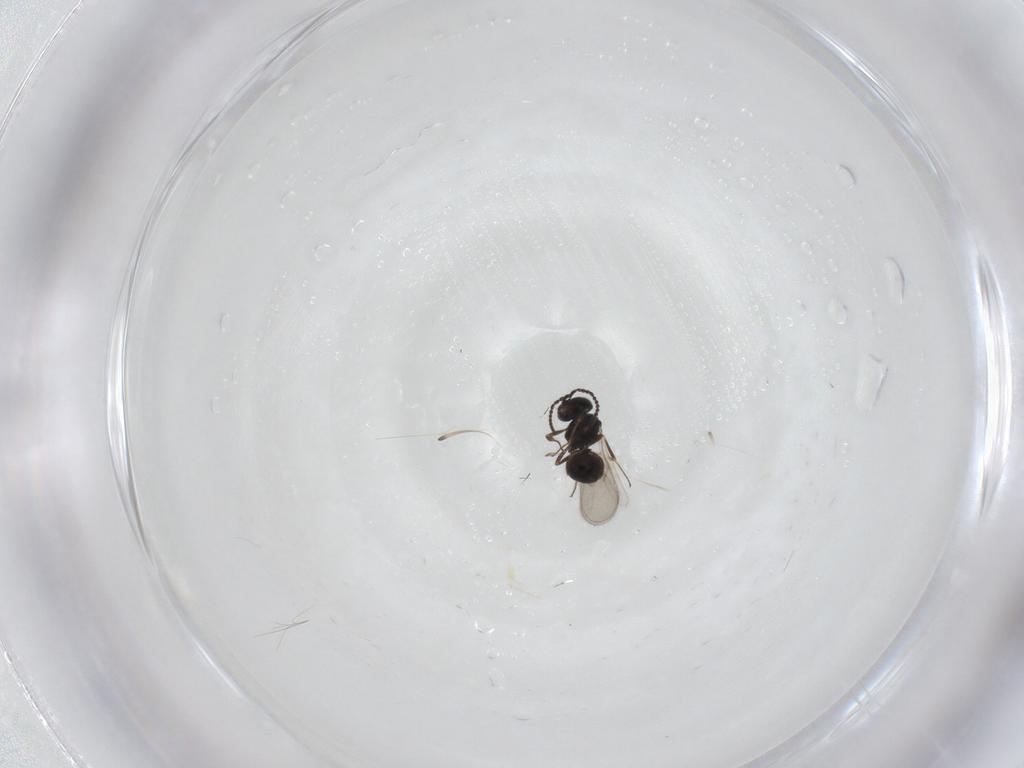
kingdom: Animalia
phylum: Arthropoda
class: Insecta
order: Hymenoptera
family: Scelionidae
